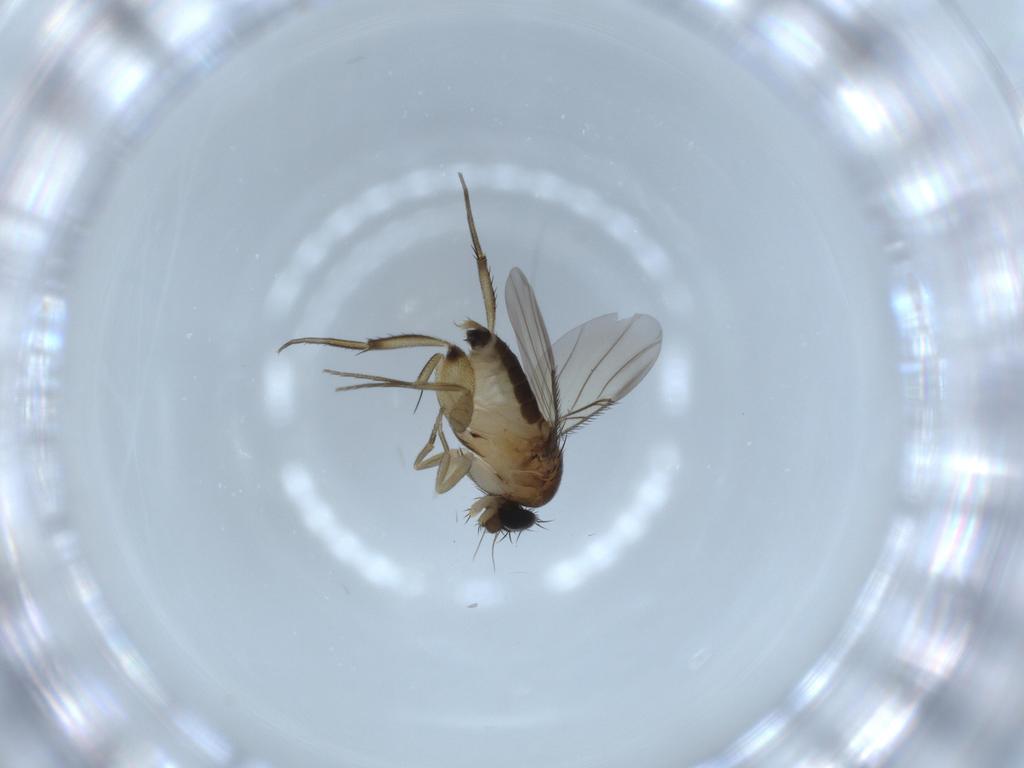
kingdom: Animalia
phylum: Arthropoda
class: Insecta
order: Diptera
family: Phoridae
